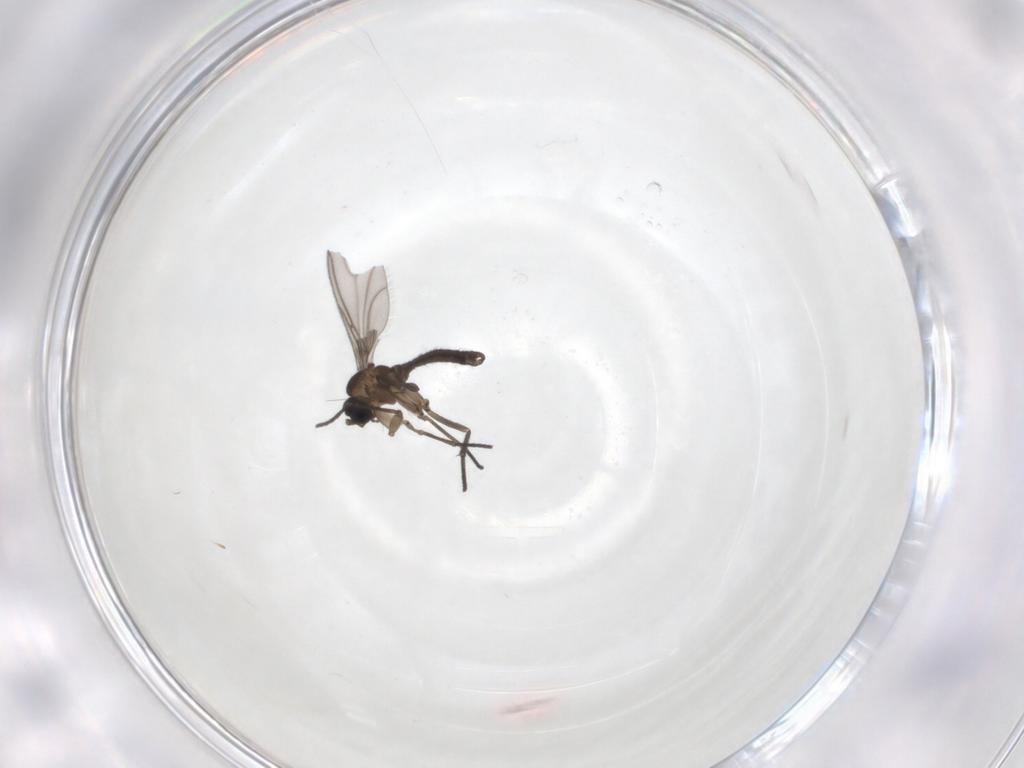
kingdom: Animalia
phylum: Arthropoda
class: Insecta
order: Diptera
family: Sciaridae
